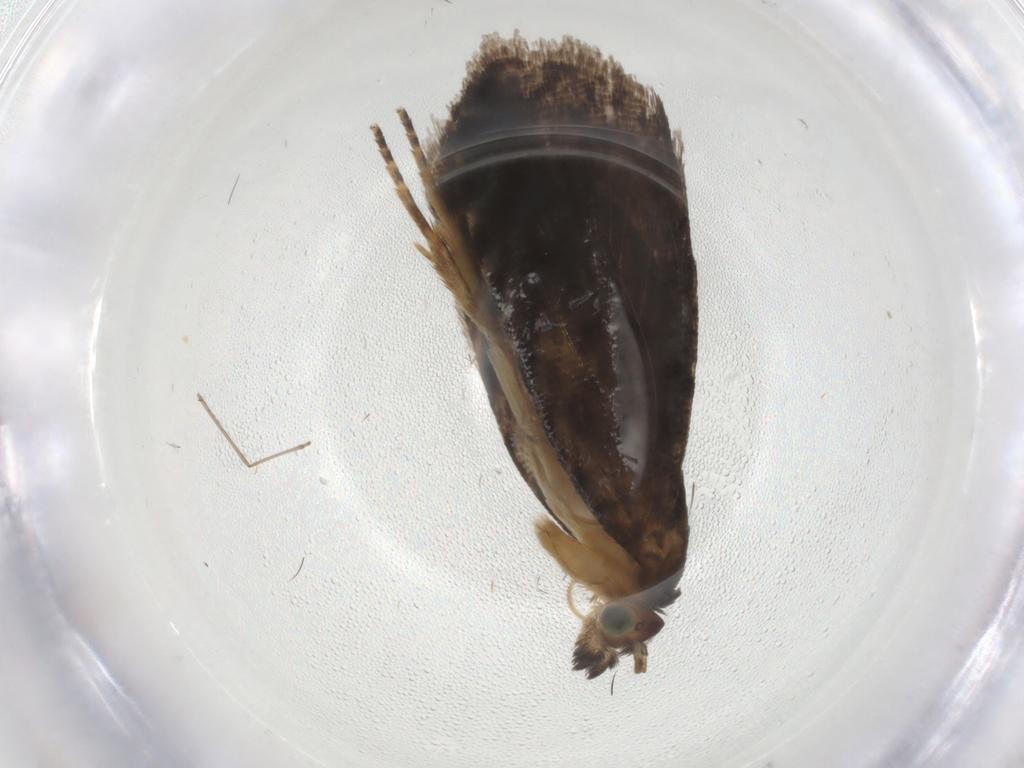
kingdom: Animalia
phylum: Arthropoda
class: Insecta
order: Lepidoptera
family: Tortricidae
